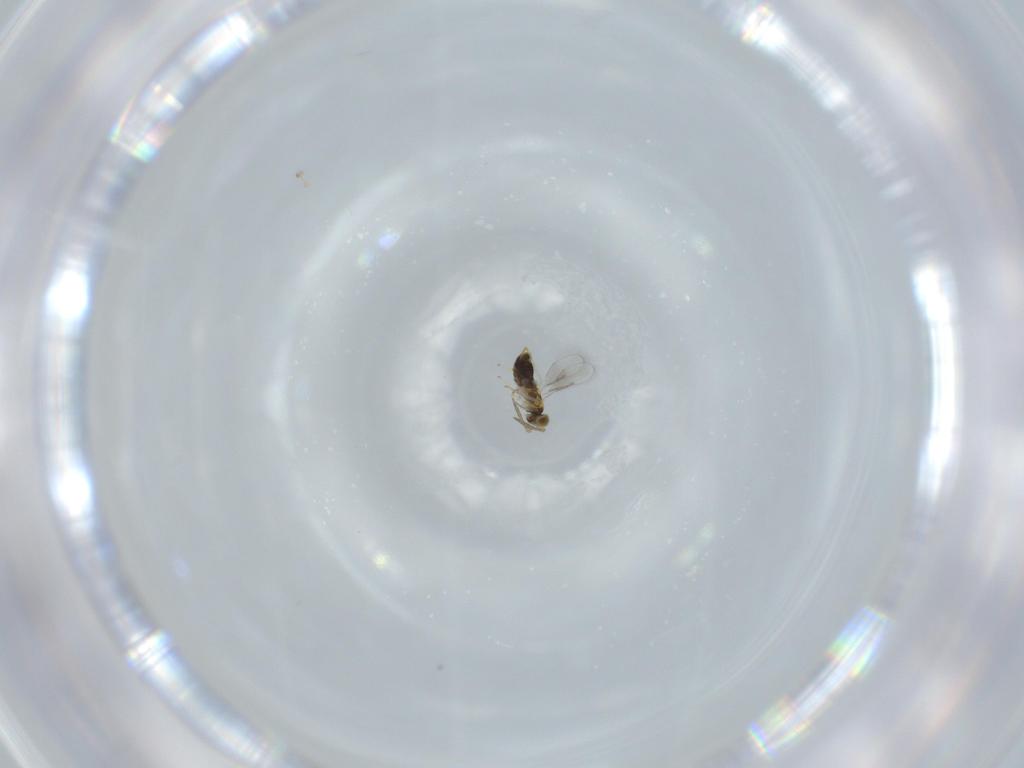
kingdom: Animalia
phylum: Arthropoda
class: Insecta
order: Hymenoptera
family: Aphelinidae
